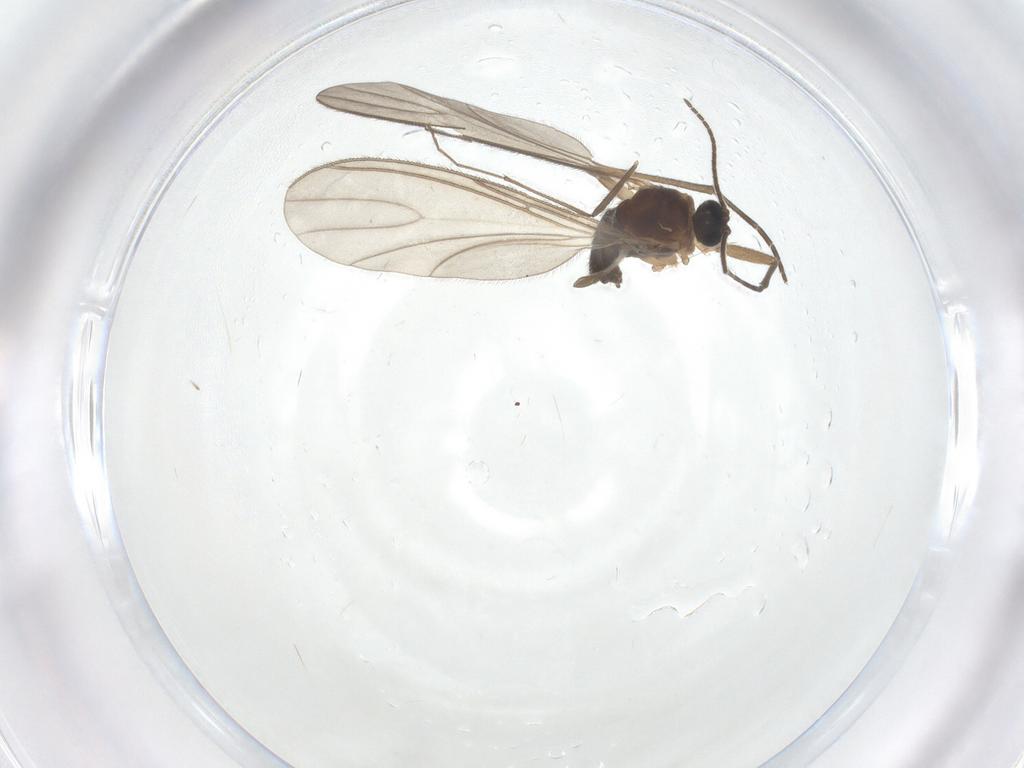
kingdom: Animalia
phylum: Arthropoda
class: Insecta
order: Diptera
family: Sciaridae
